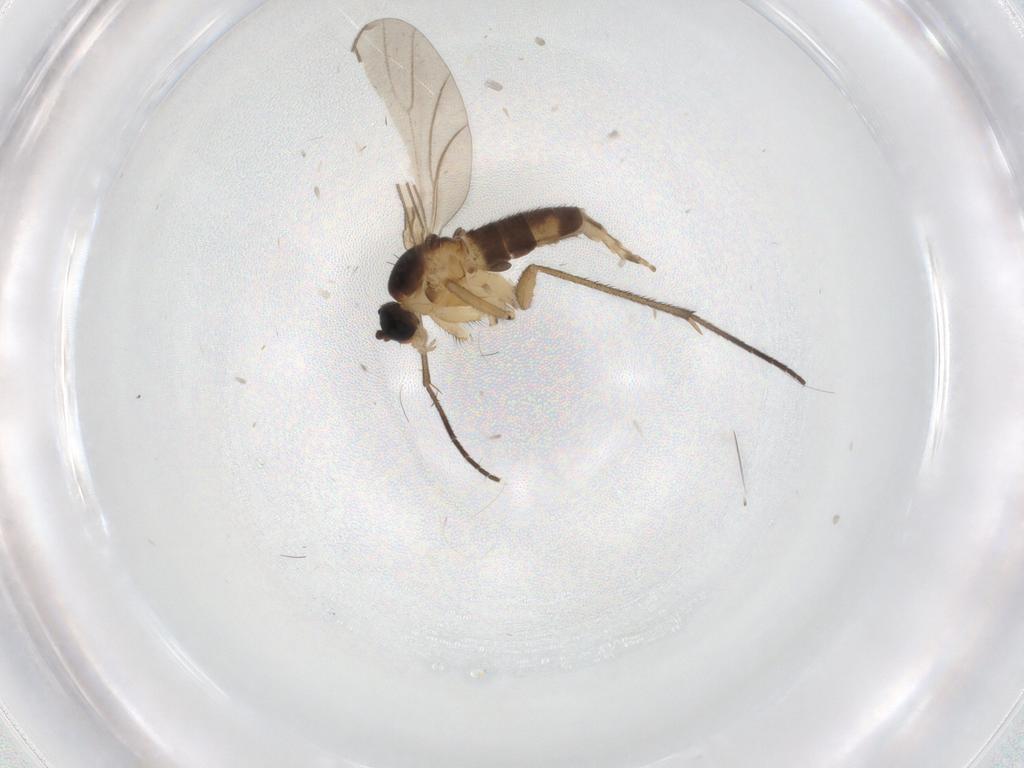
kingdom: Animalia
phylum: Arthropoda
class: Insecta
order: Diptera
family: Sciaridae
